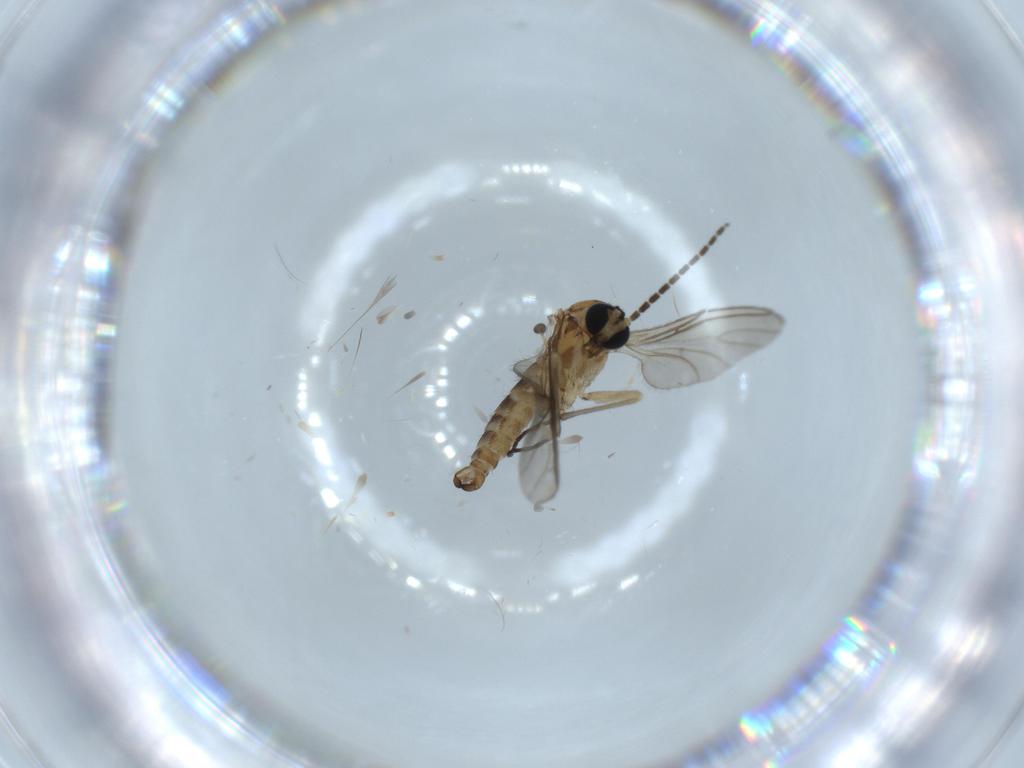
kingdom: Animalia
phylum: Arthropoda
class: Insecta
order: Diptera
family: Sciaridae
